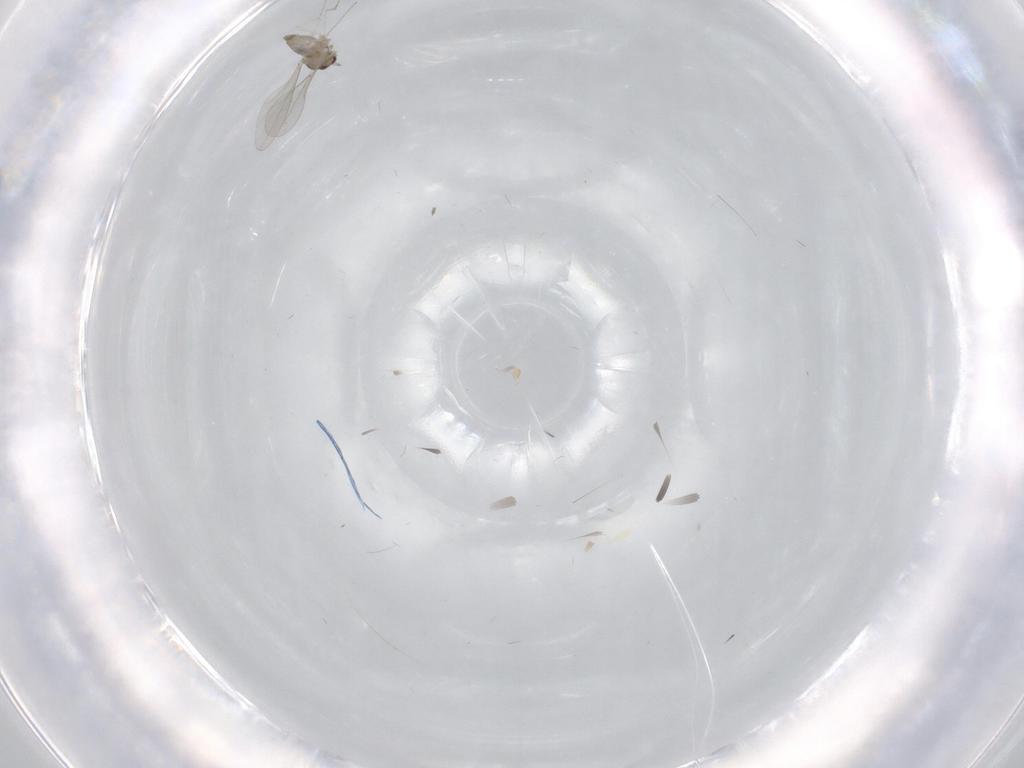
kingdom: Animalia
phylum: Arthropoda
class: Insecta
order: Diptera
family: Cecidomyiidae
